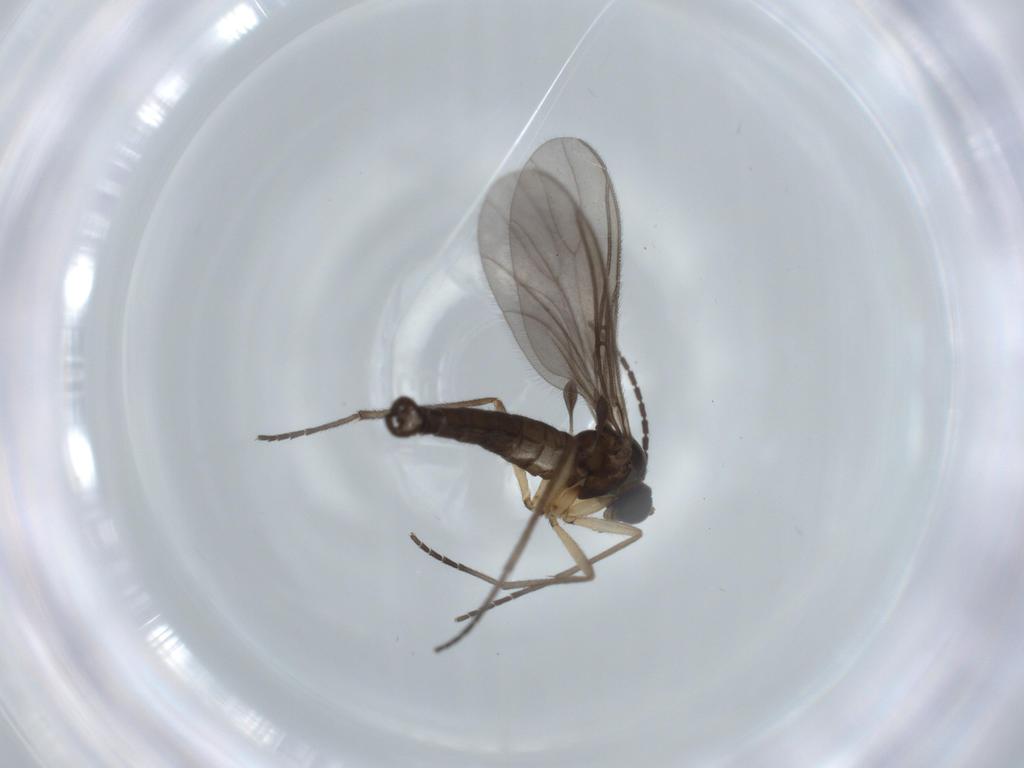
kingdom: Animalia
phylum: Arthropoda
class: Insecta
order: Diptera
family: Sciaridae
